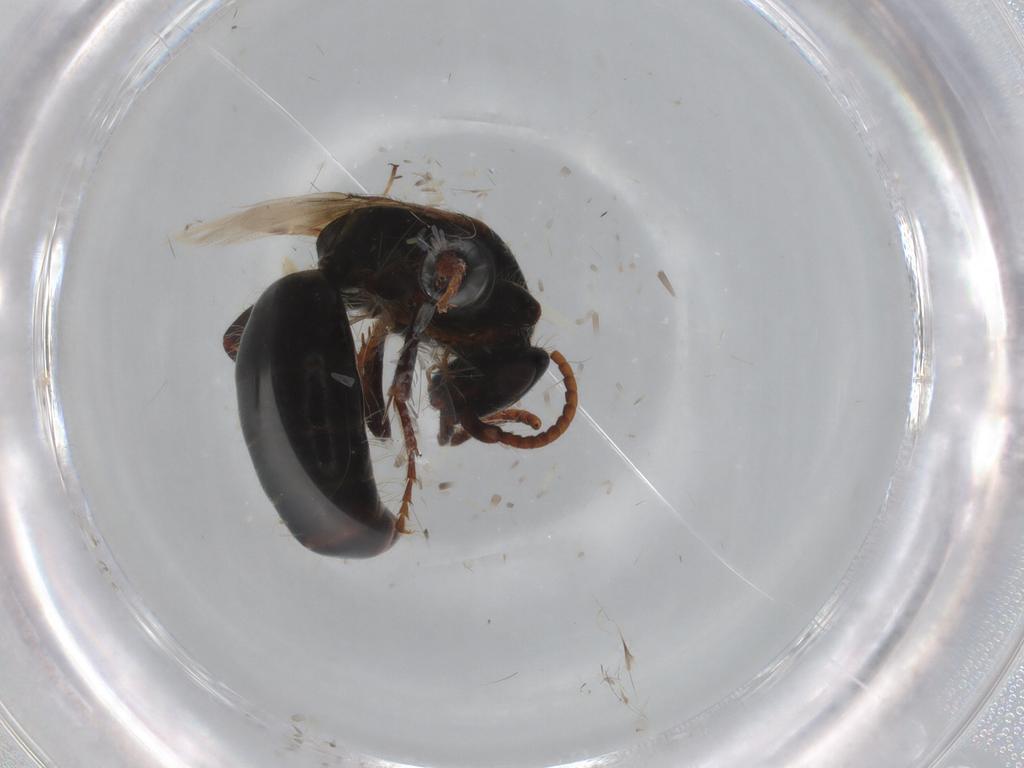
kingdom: Animalia
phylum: Arthropoda
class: Insecta
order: Hymenoptera
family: Bethylidae
